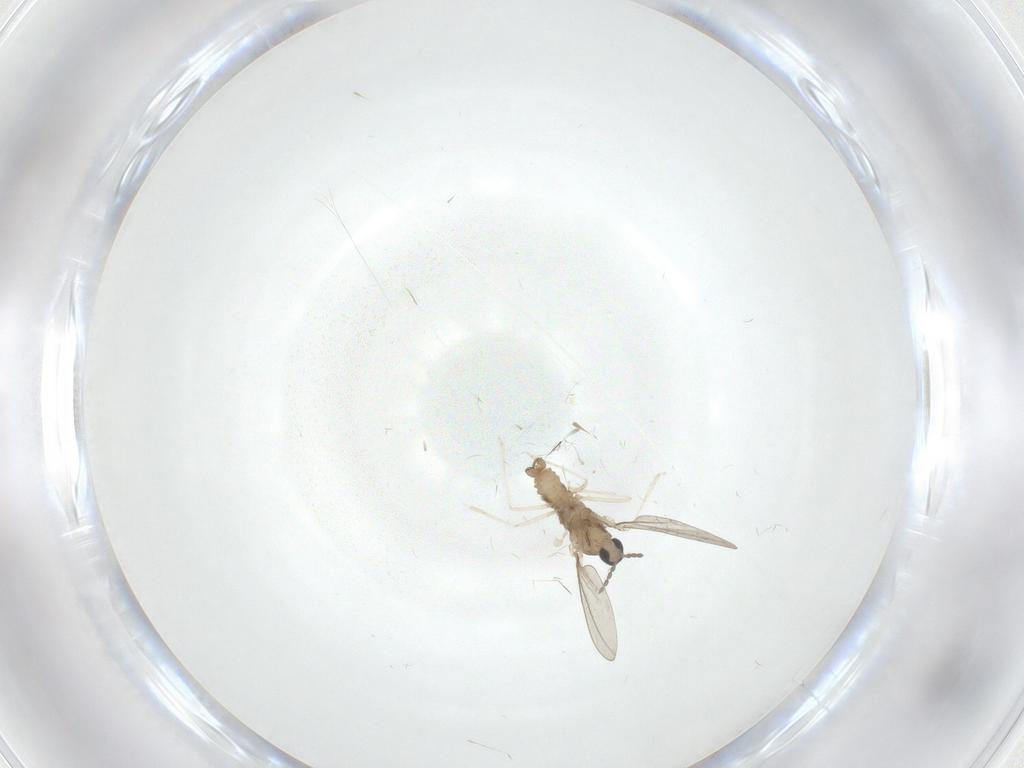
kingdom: Animalia
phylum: Arthropoda
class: Insecta
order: Diptera
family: Cecidomyiidae
